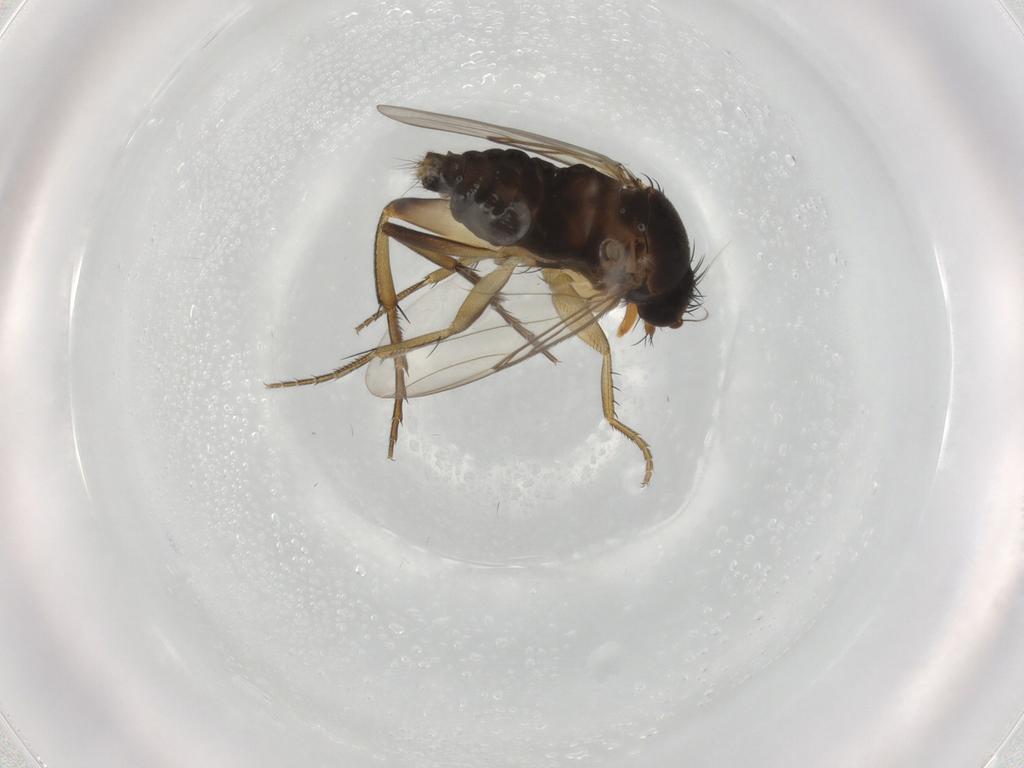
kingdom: Animalia
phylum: Arthropoda
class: Insecta
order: Diptera
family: Phoridae
